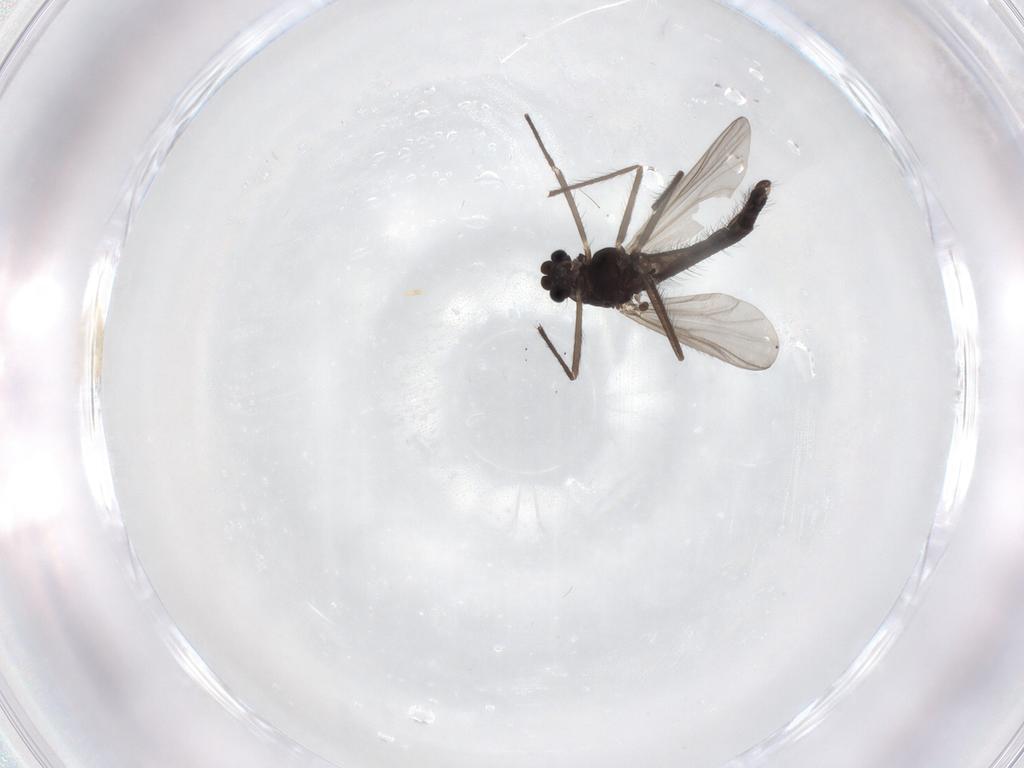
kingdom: Animalia
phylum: Arthropoda
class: Insecta
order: Diptera
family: Chironomidae
